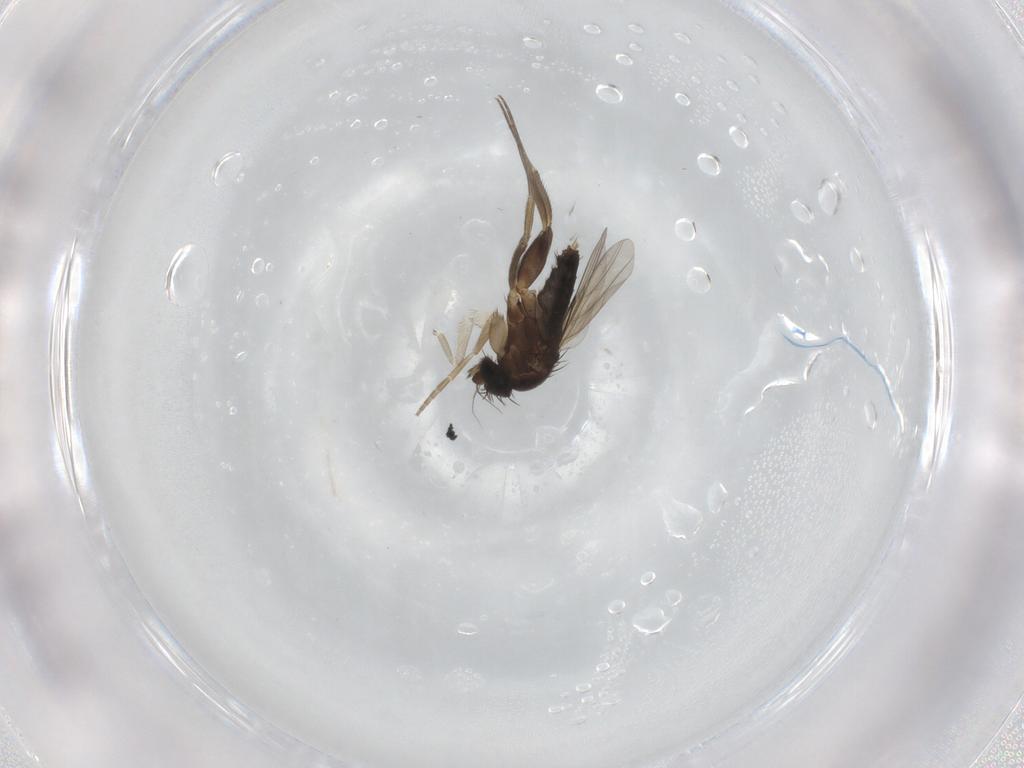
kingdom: Animalia
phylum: Arthropoda
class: Insecta
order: Diptera
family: Phoridae
